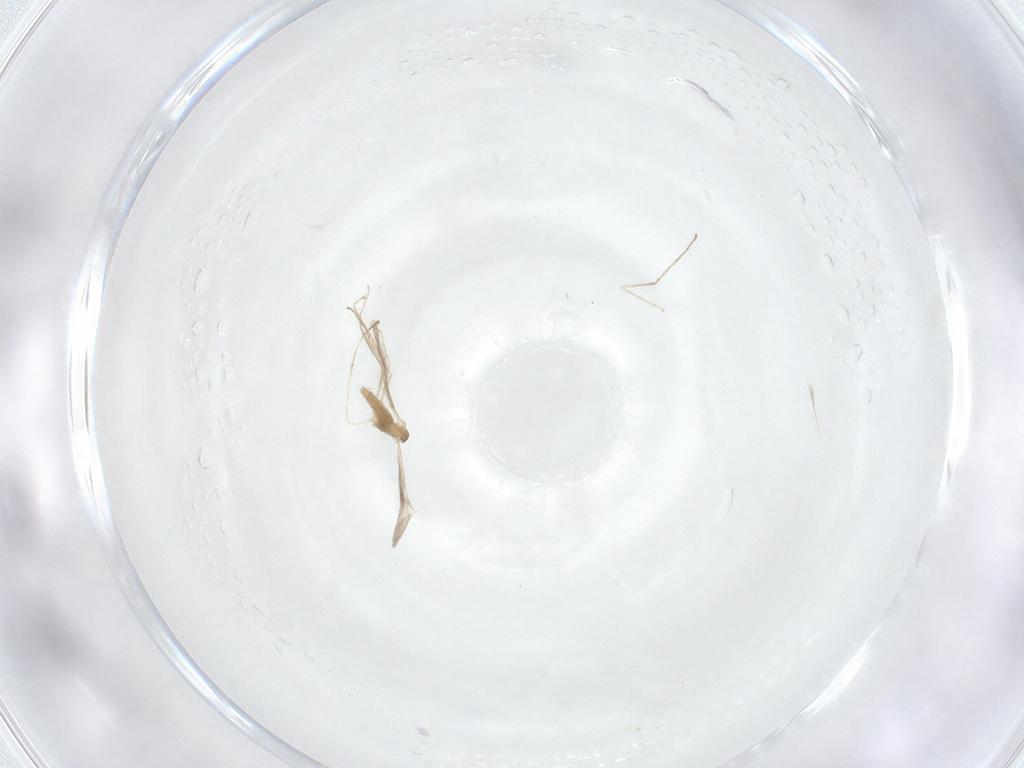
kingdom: Animalia
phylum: Arthropoda
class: Insecta
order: Diptera
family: Cecidomyiidae
